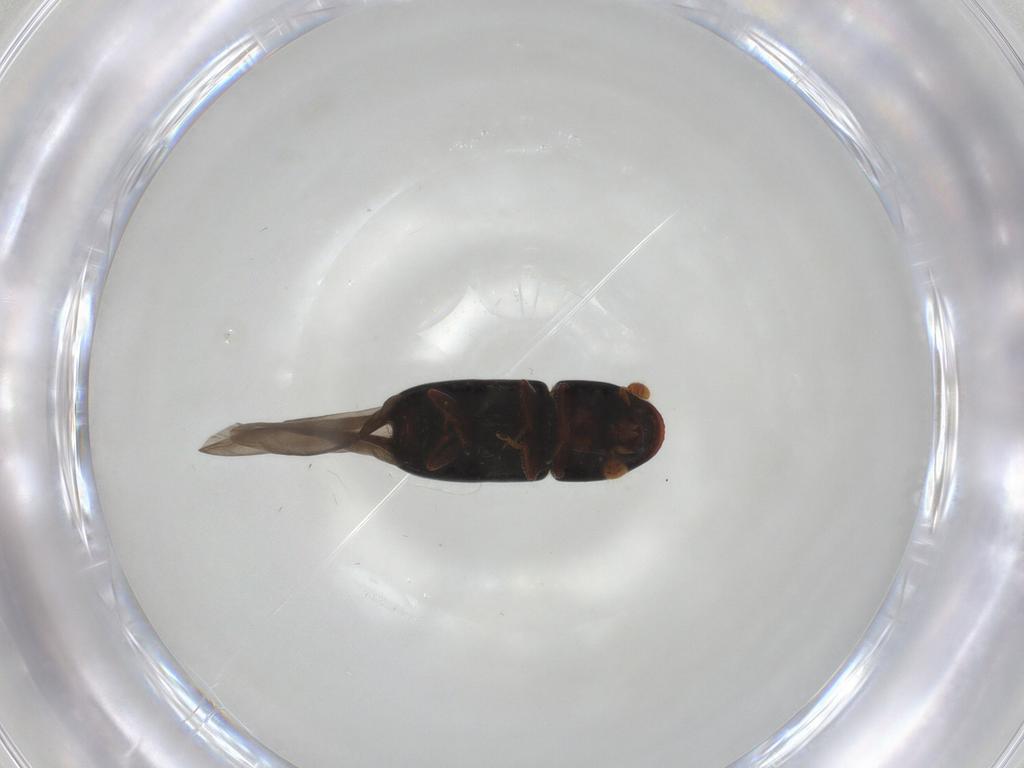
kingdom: Animalia
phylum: Arthropoda
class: Insecta
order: Coleoptera
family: Curculionidae
